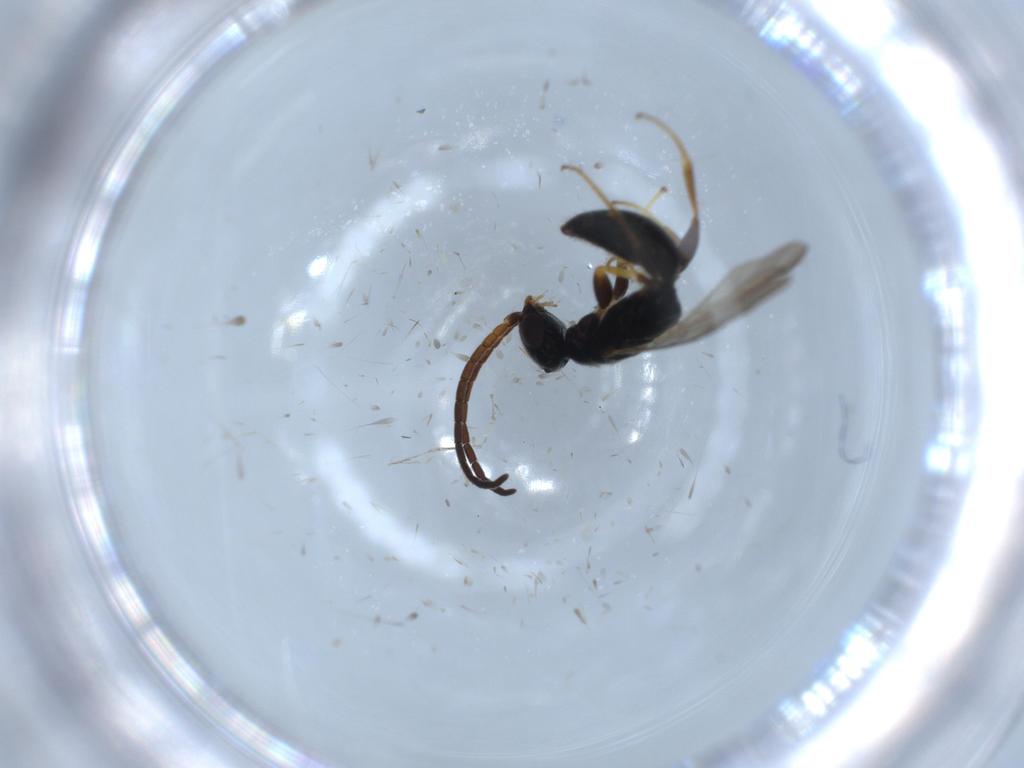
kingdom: Animalia
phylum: Arthropoda
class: Insecta
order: Hymenoptera
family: Bethylidae
